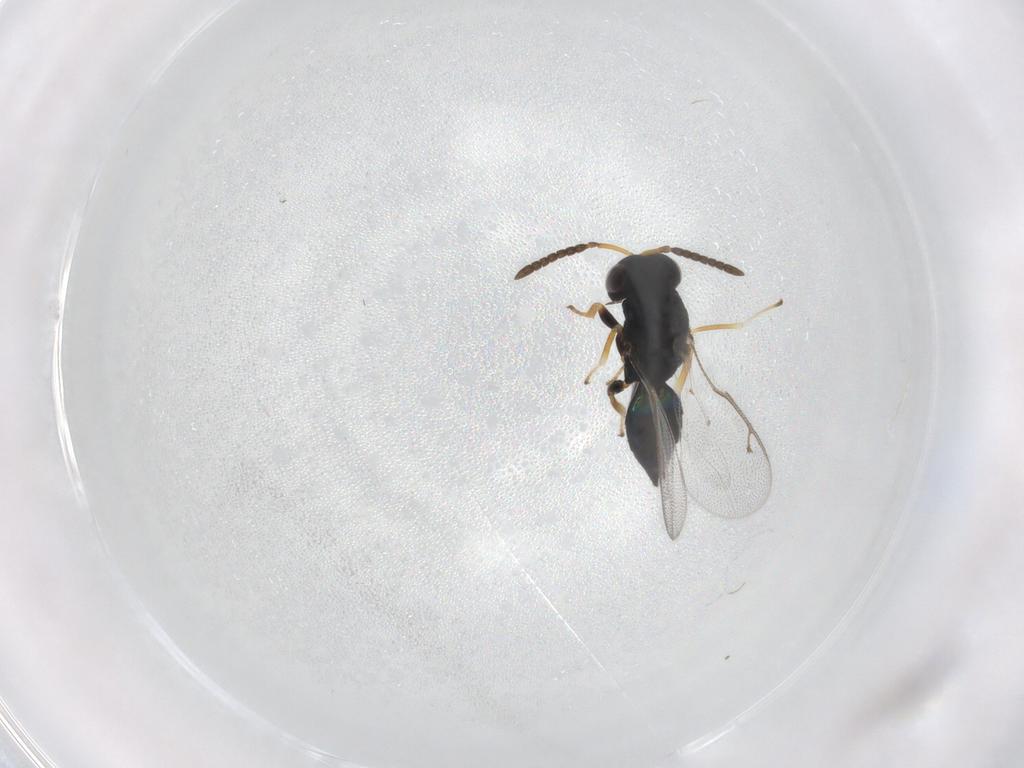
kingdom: Animalia
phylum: Arthropoda
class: Insecta
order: Hymenoptera
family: Pteromalidae
